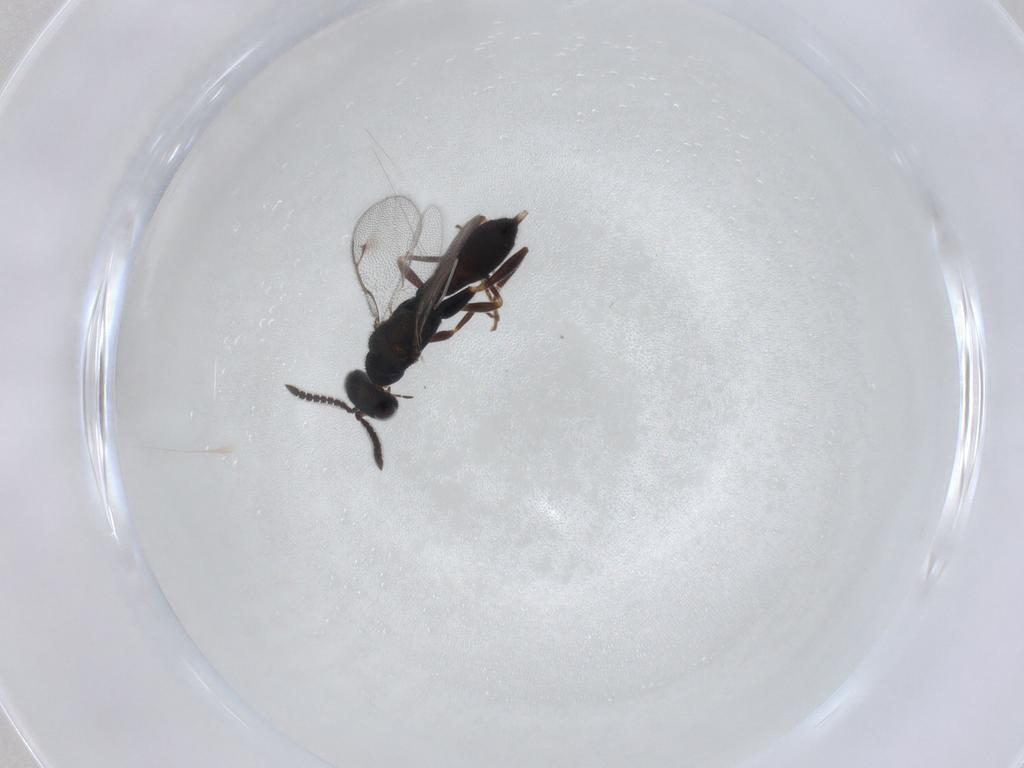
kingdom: Animalia
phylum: Arthropoda
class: Insecta
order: Hymenoptera
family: Cleonyminae
